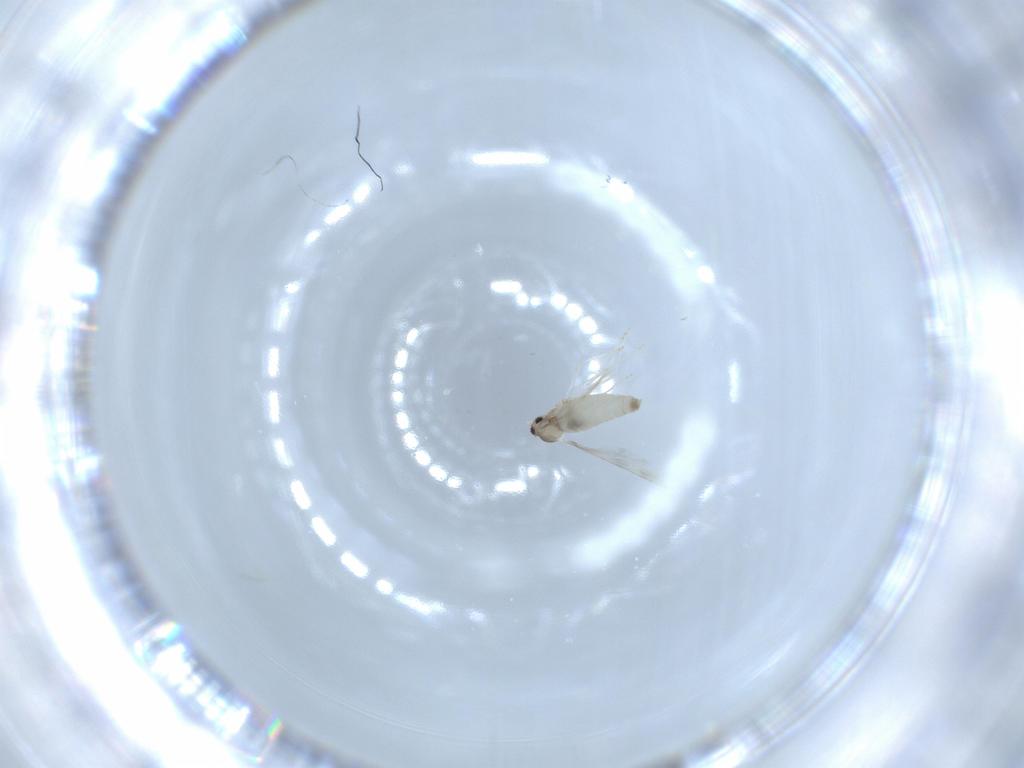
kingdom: Animalia
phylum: Arthropoda
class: Insecta
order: Diptera
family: Cecidomyiidae
